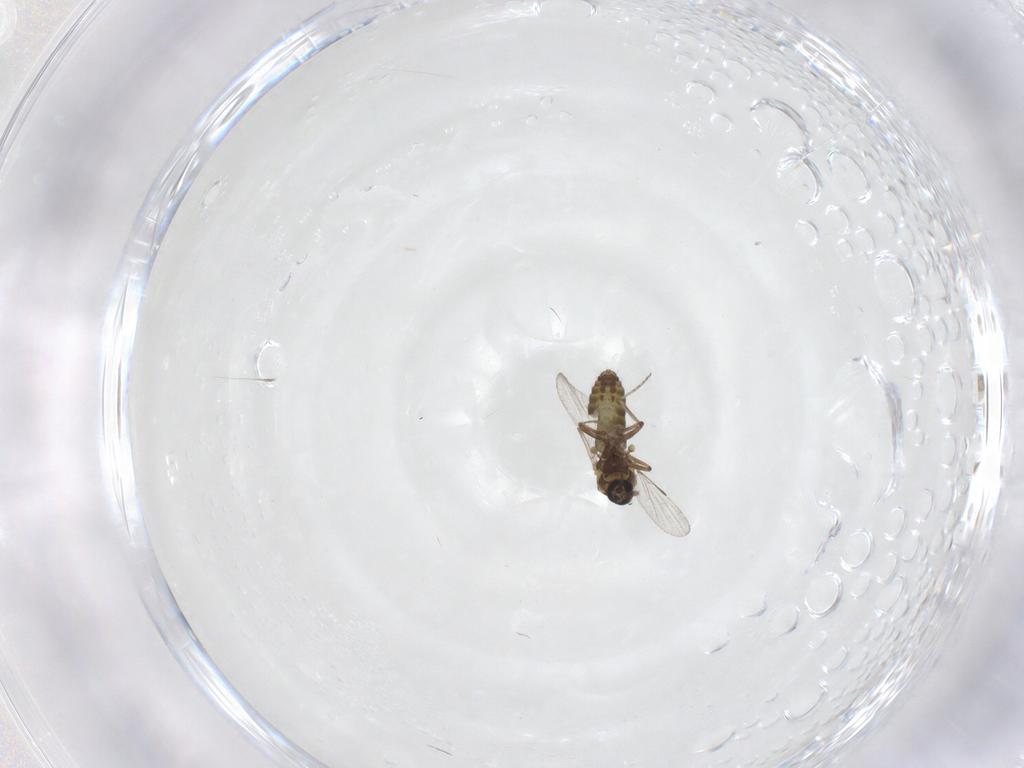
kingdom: Animalia
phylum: Arthropoda
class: Insecta
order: Diptera
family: Ceratopogonidae
